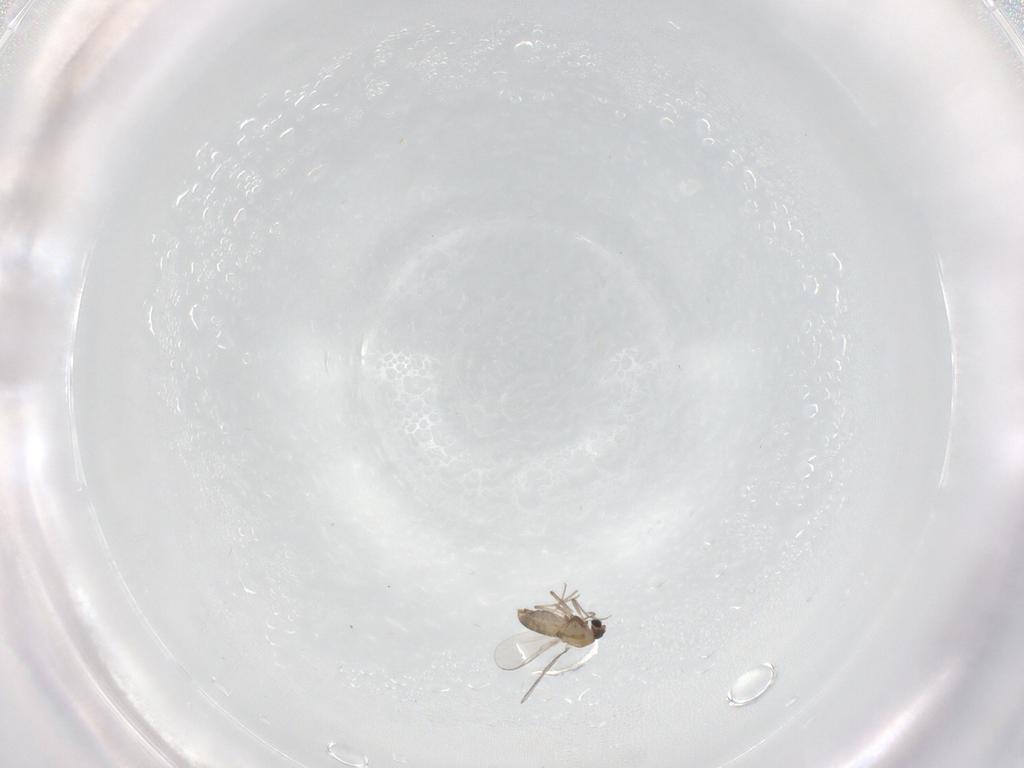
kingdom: Animalia
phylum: Arthropoda
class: Insecta
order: Diptera
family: Chironomidae
